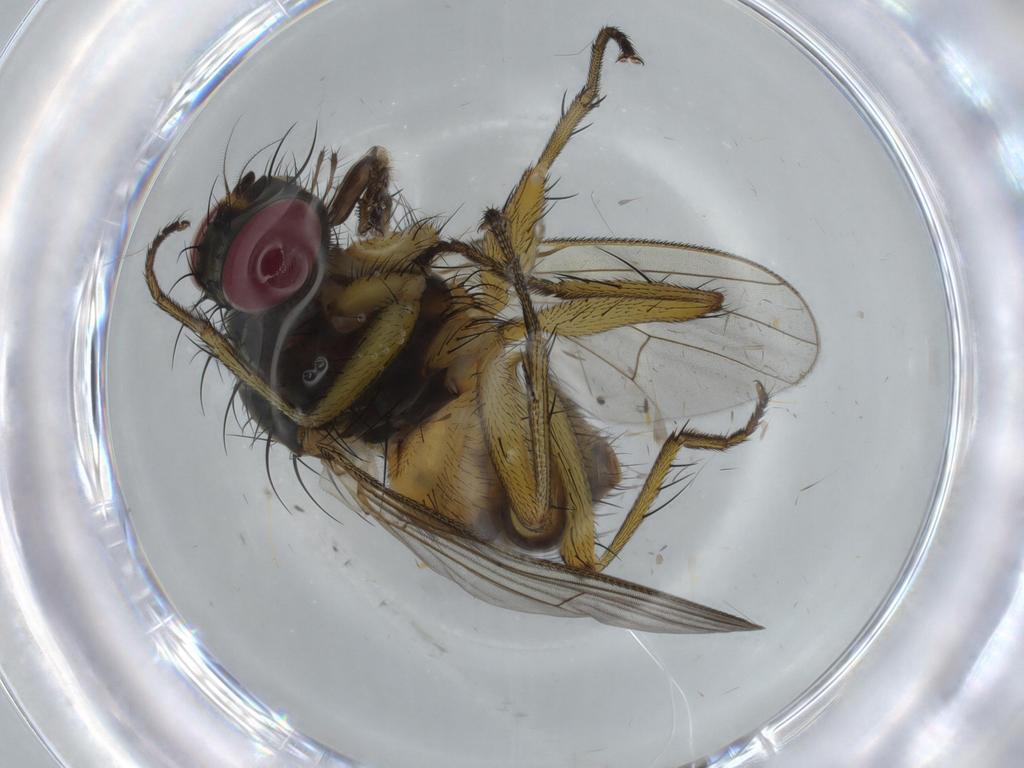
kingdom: Animalia
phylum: Arthropoda
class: Insecta
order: Diptera
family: Muscidae
